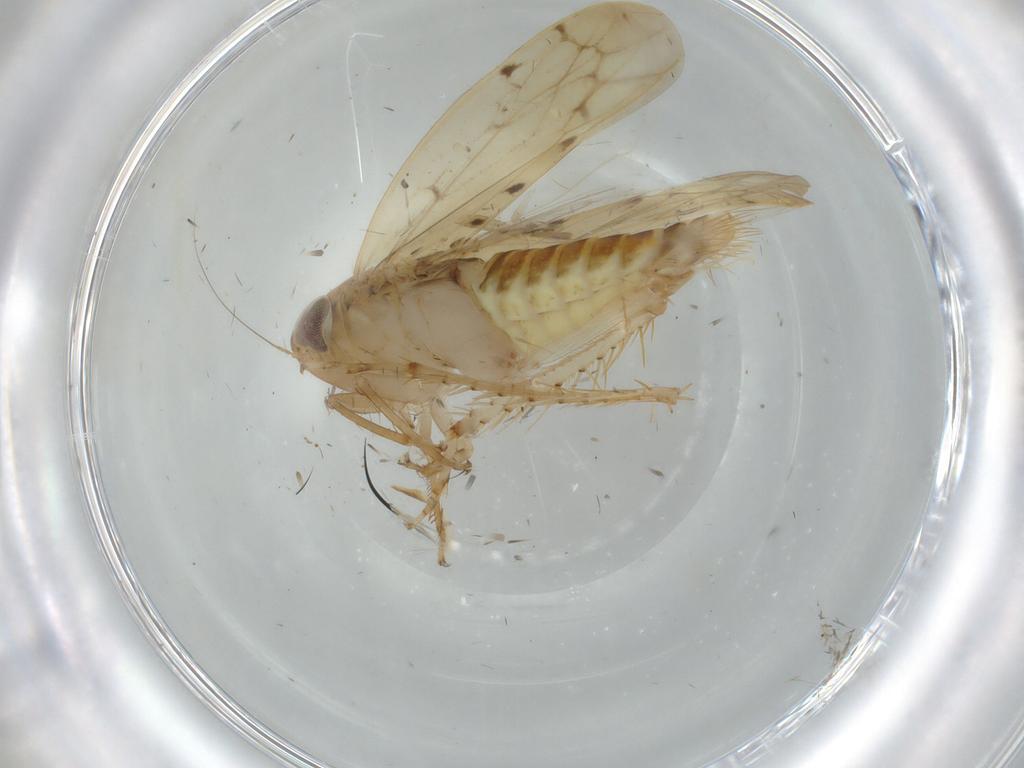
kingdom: Animalia
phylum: Arthropoda
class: Insecta
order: Hemiptera
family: Cicadellidae
